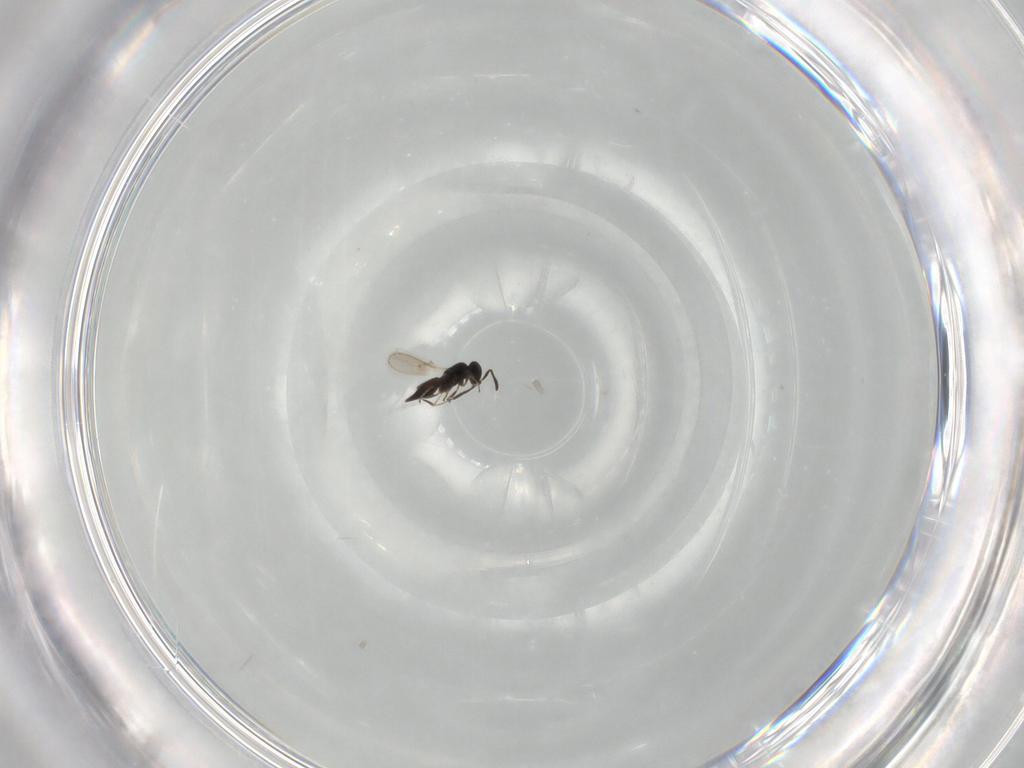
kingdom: Animalia
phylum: Arthropoda
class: Insecta
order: Hymenoptera
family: Scelionidae
